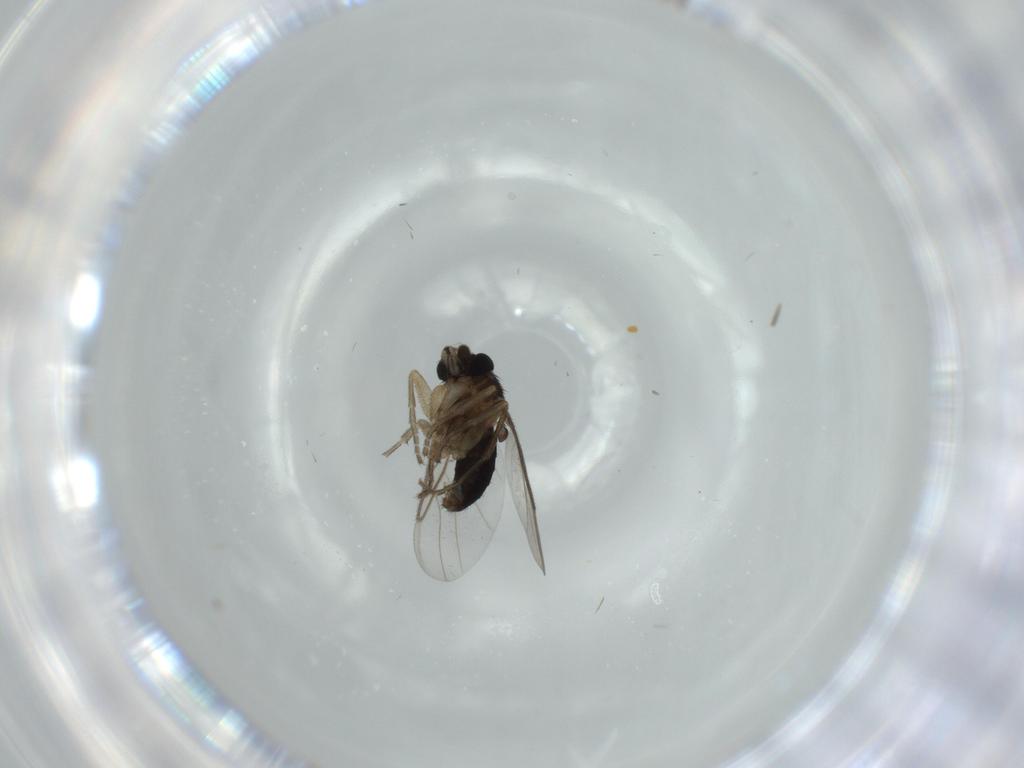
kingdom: Animalia
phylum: Arthropoda
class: Insecta
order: Diptera
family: Phoridae
